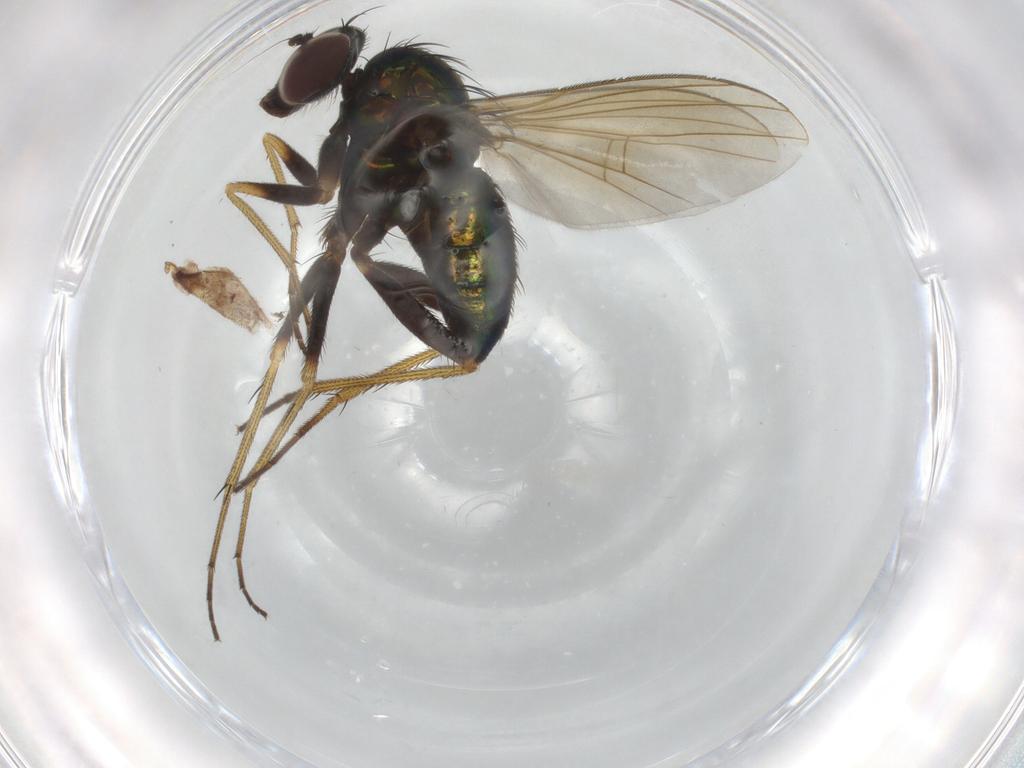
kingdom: Animalia
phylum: Arthropoda
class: Insecta
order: Diptera
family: Dolichopodidae
